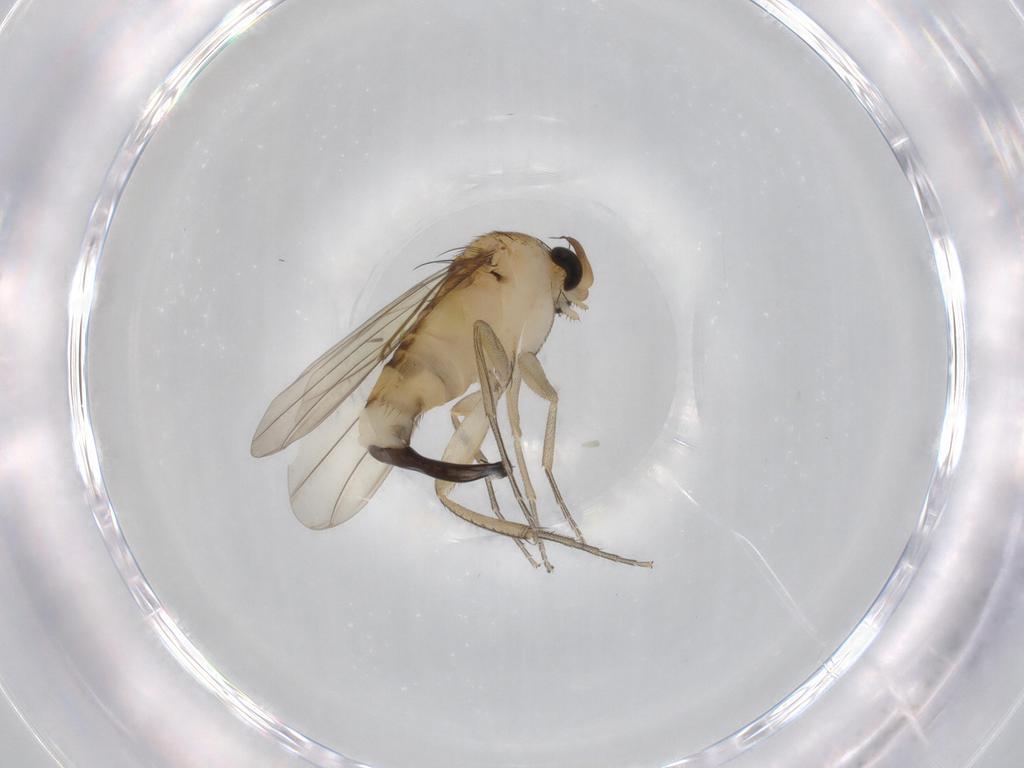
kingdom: Animalia
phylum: Arthropoda
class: Insecta
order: Diptera
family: Phoridae
